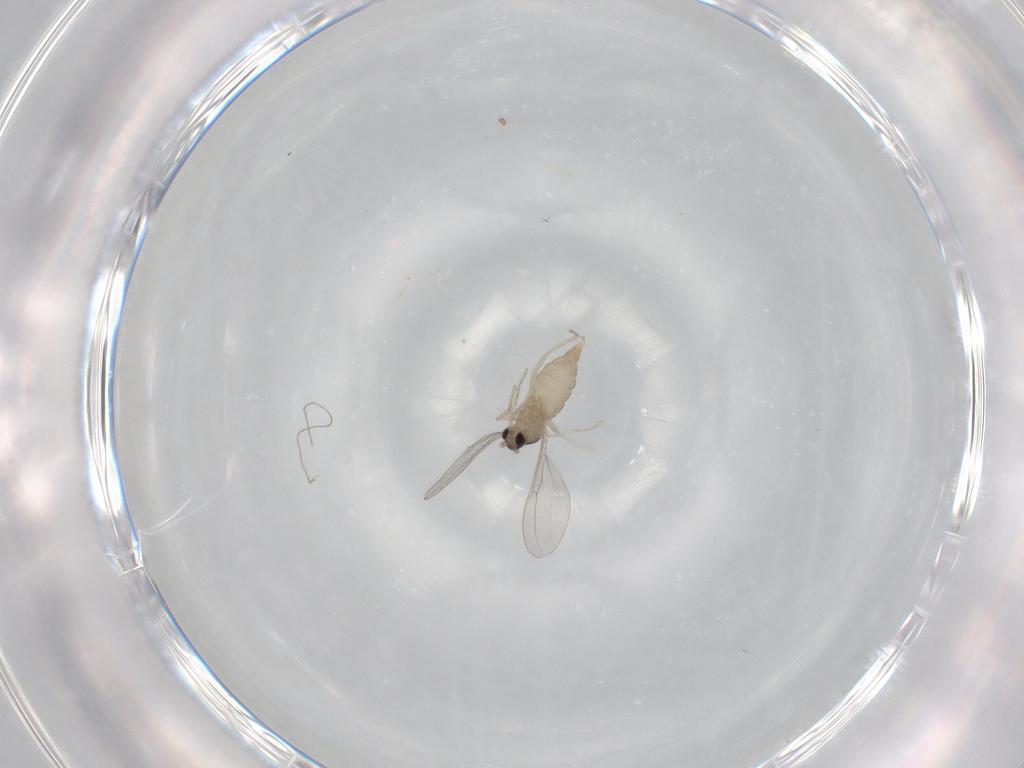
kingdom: Animalia
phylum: Arthropoda
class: Insecta
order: Diptera
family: Cecidomyiidae
